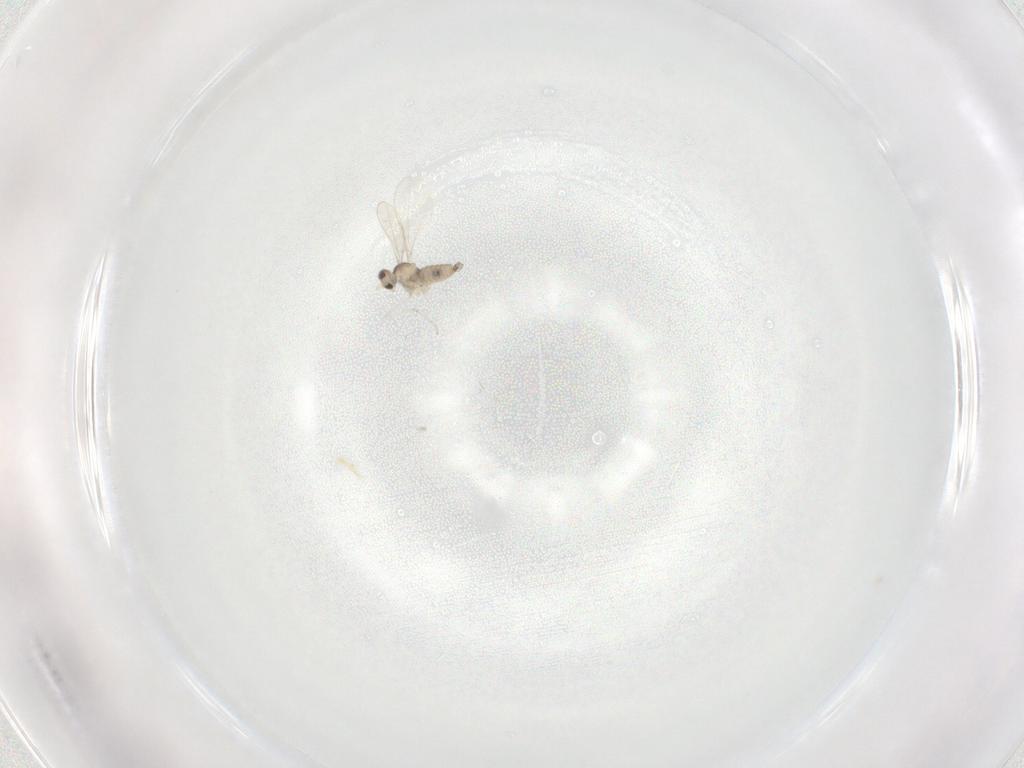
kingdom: Animalia
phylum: Arthropoda
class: Insecta
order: Diptera
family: Cecidomyiidae
